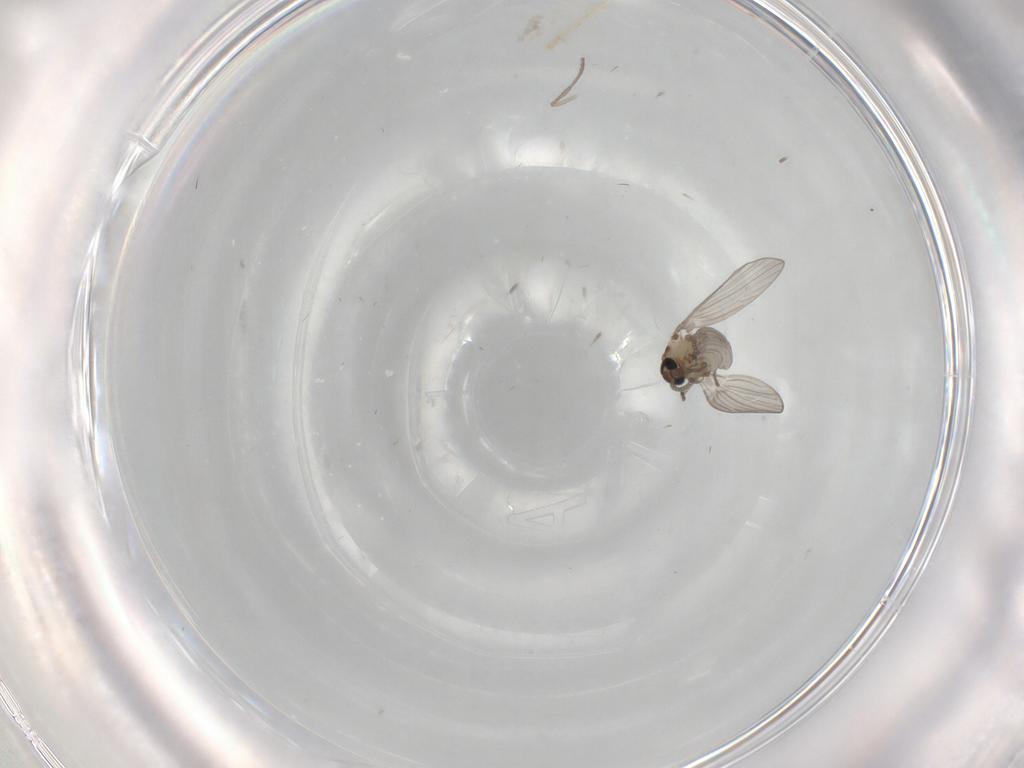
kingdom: Animalia
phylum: Arthropoda
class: Insecta
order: Diptera
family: Psychodidae
